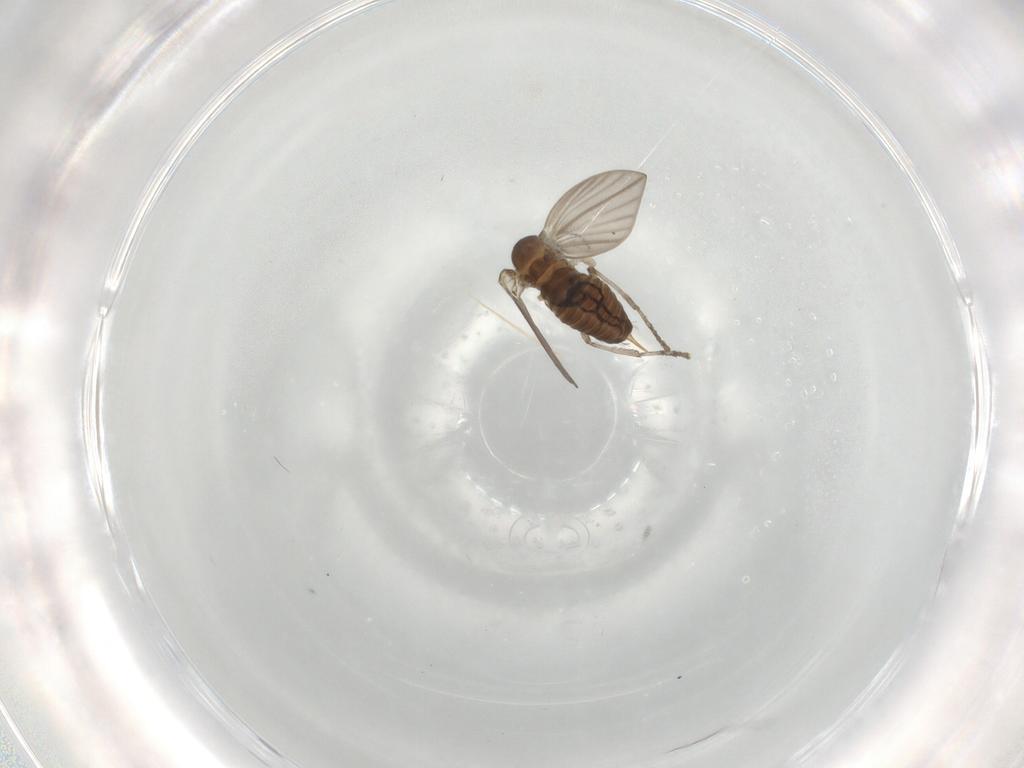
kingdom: Animalia
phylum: Arthropoda
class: Insecta
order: Diptera
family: Psychodidae
